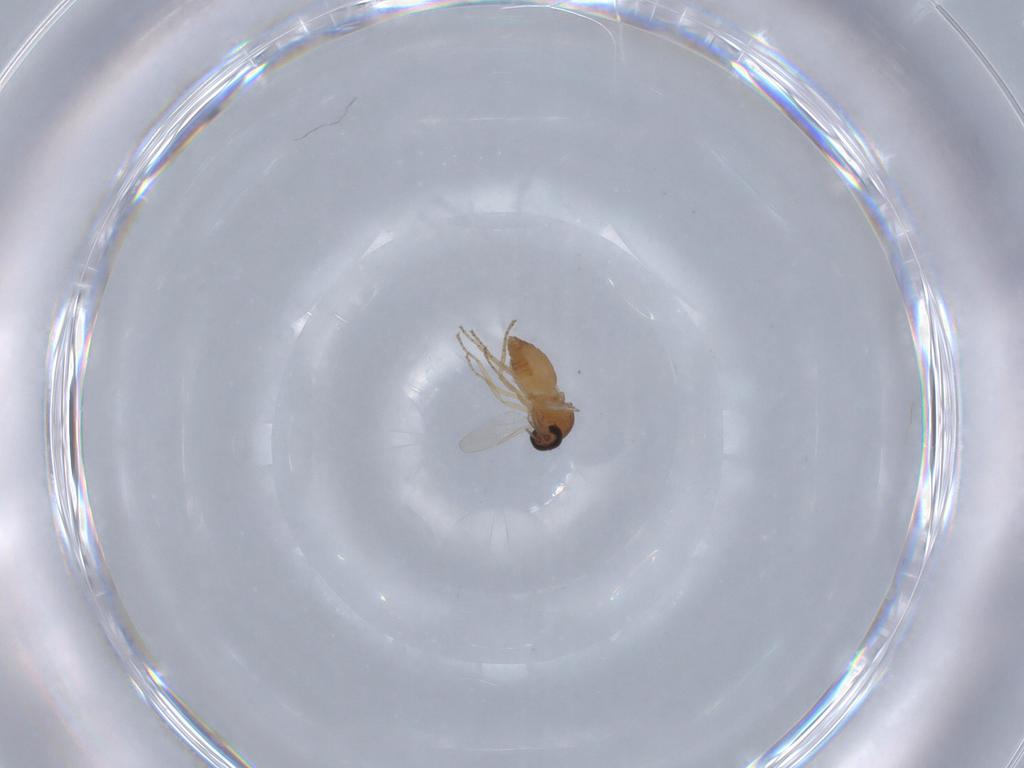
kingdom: Animalia
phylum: Arthropoda
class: Insecta
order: Diptera
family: Ceratopogonidae
